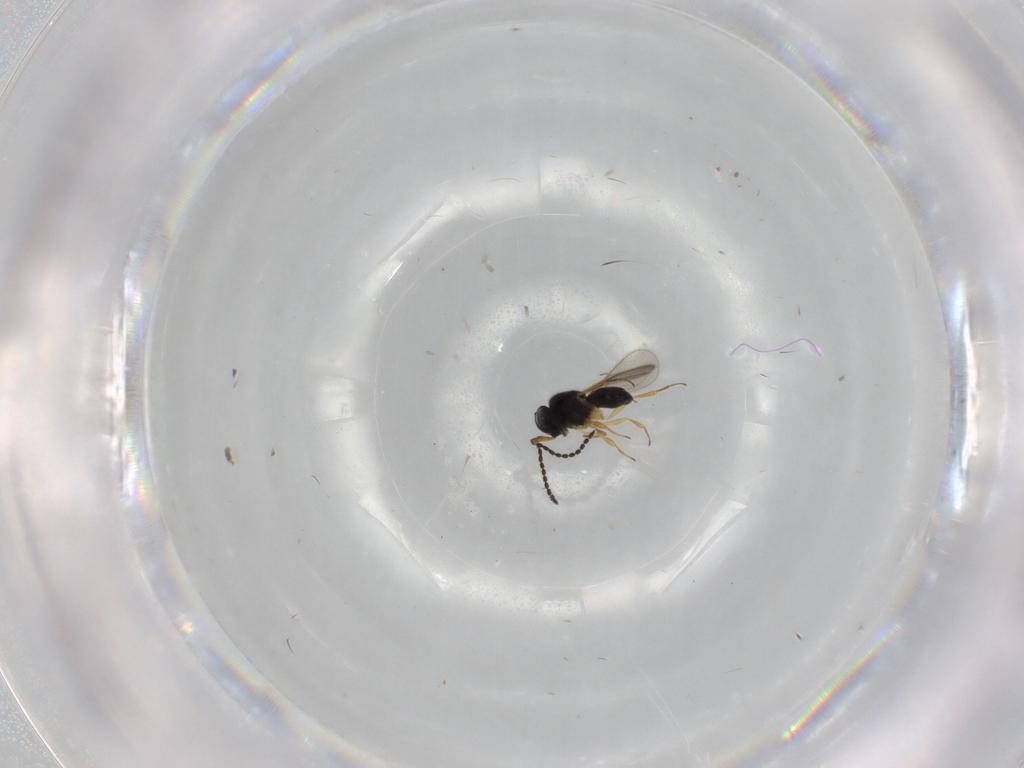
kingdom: Animalia
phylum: Arthropoda
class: Insecta
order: Hymenoptera
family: Scelionidae
